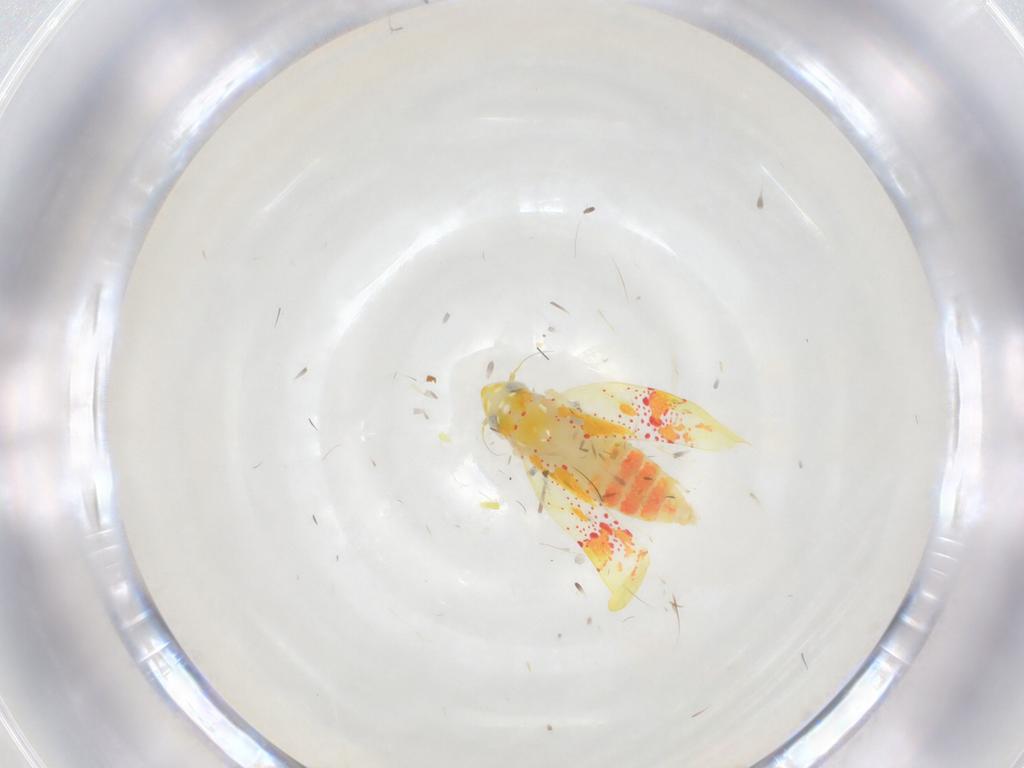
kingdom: Animalia
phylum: Arthropoda
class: Insecta
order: Hemiptera
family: Cicadellidae
